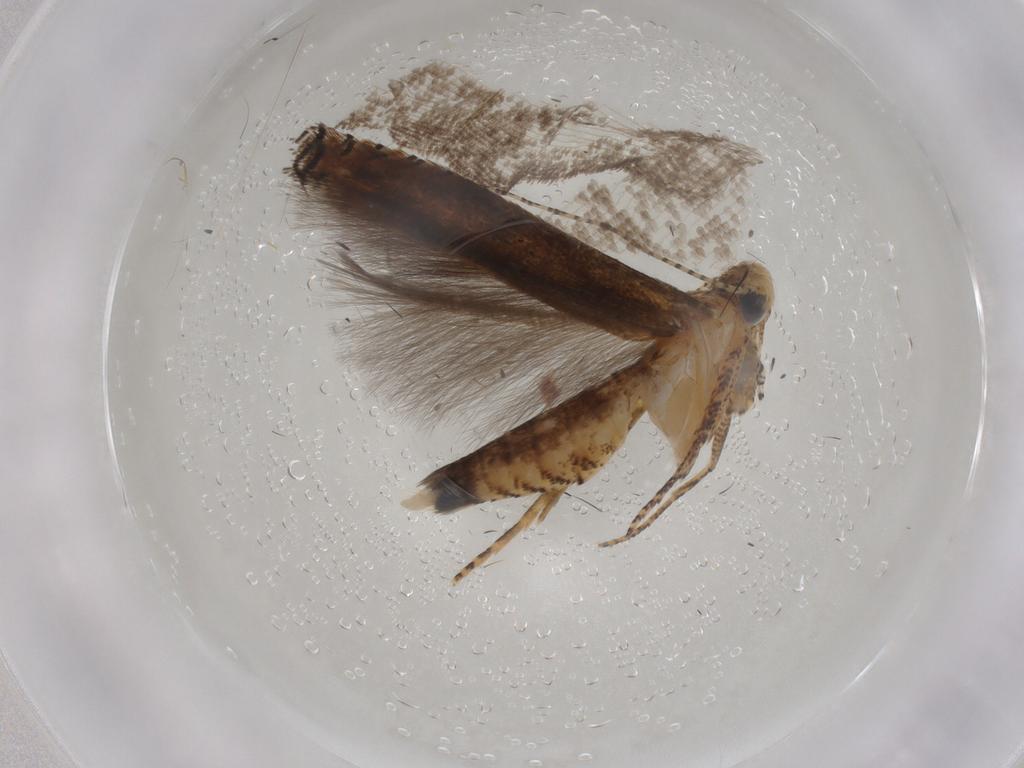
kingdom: Animalia
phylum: Arthropoda
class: Insecta
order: Lepidoptera
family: Gelechiidae
